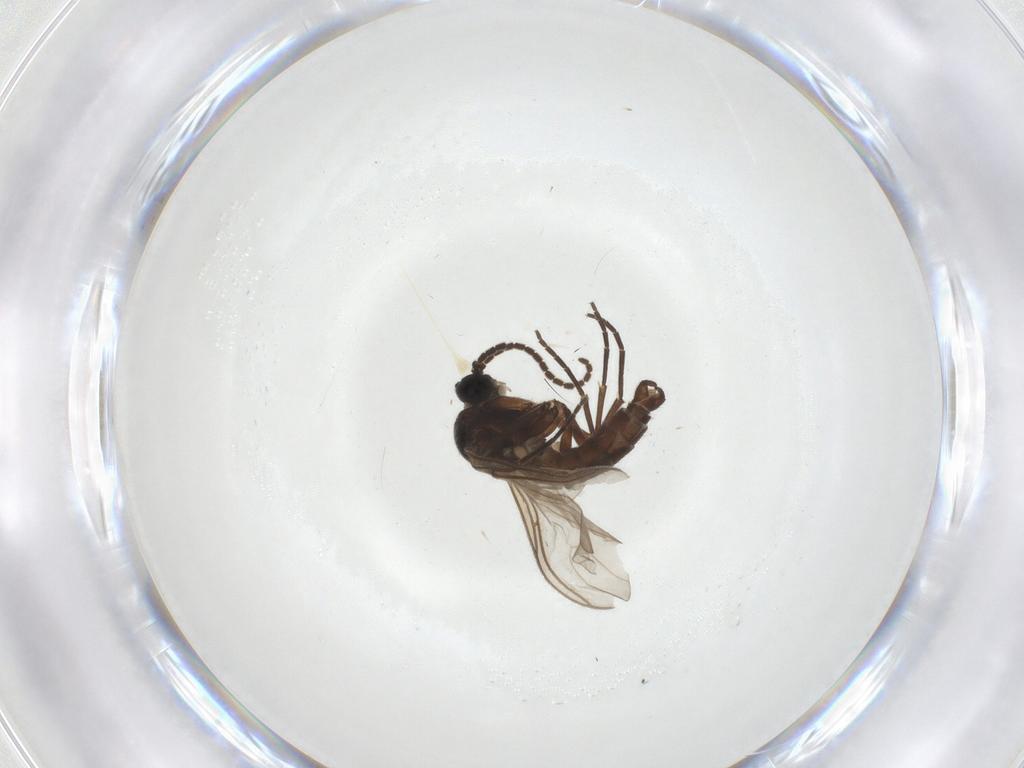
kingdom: Animalia
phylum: Arthropoda
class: Insecta
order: Diptera
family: Sciaridae
